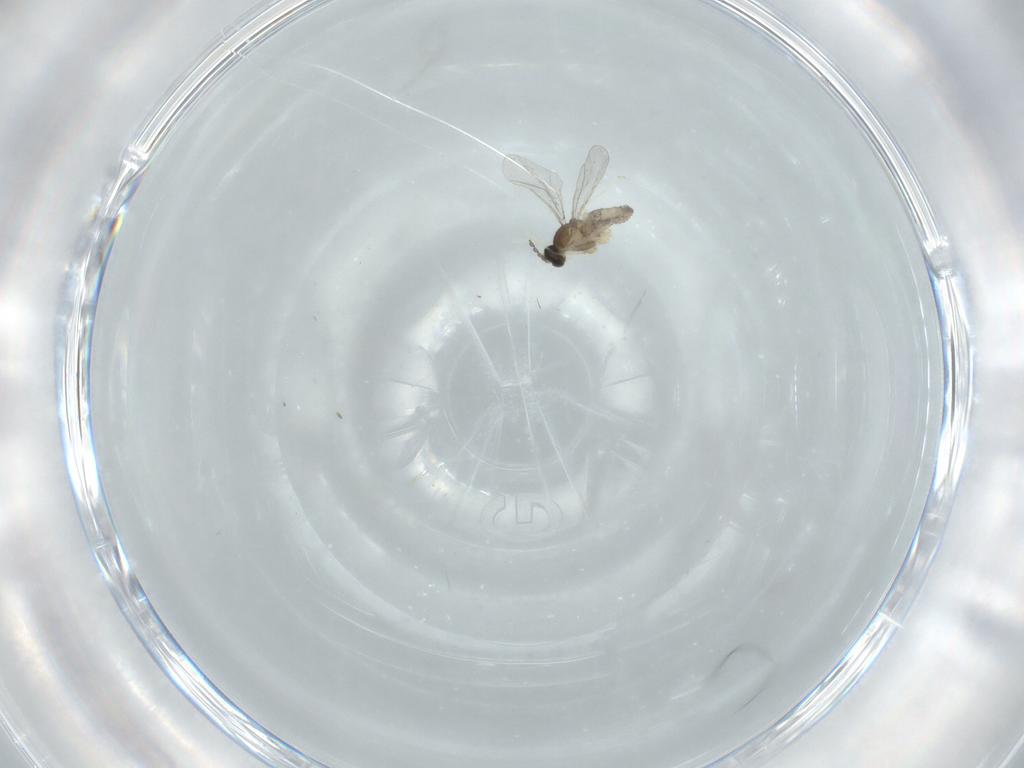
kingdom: Animalia
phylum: Arthropoda
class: Insecta
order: Diptera
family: Cecidomyiidae
